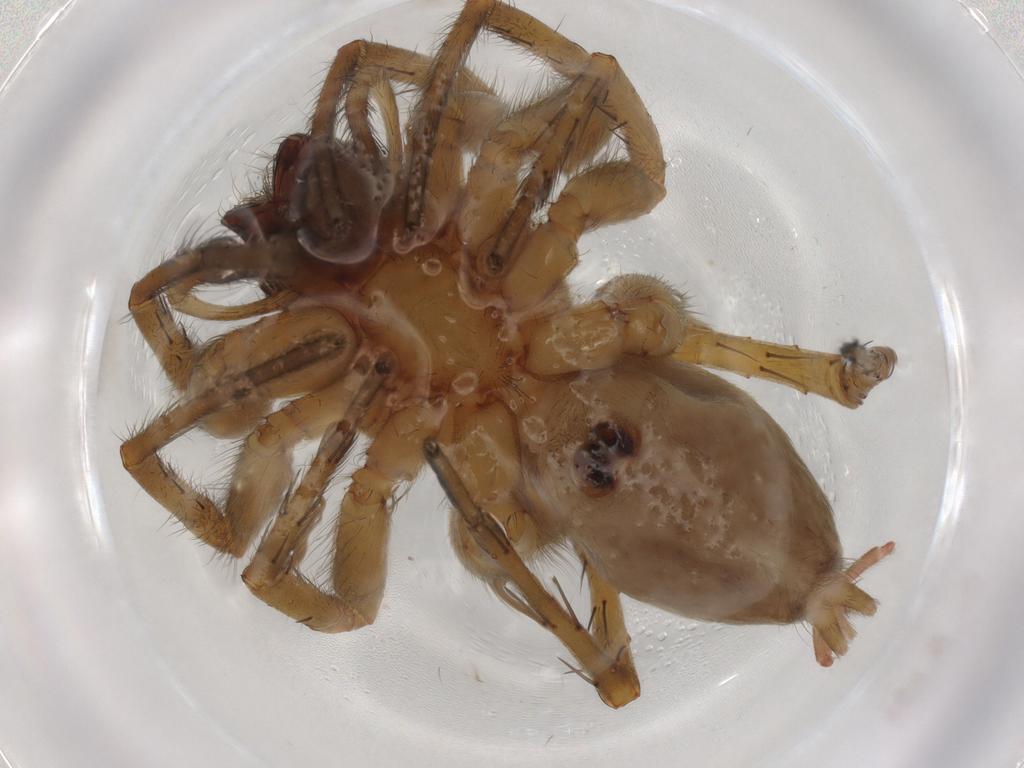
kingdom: Animalia
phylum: Arthropoda
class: Arachnida
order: Araneae
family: Anyphaenidae
